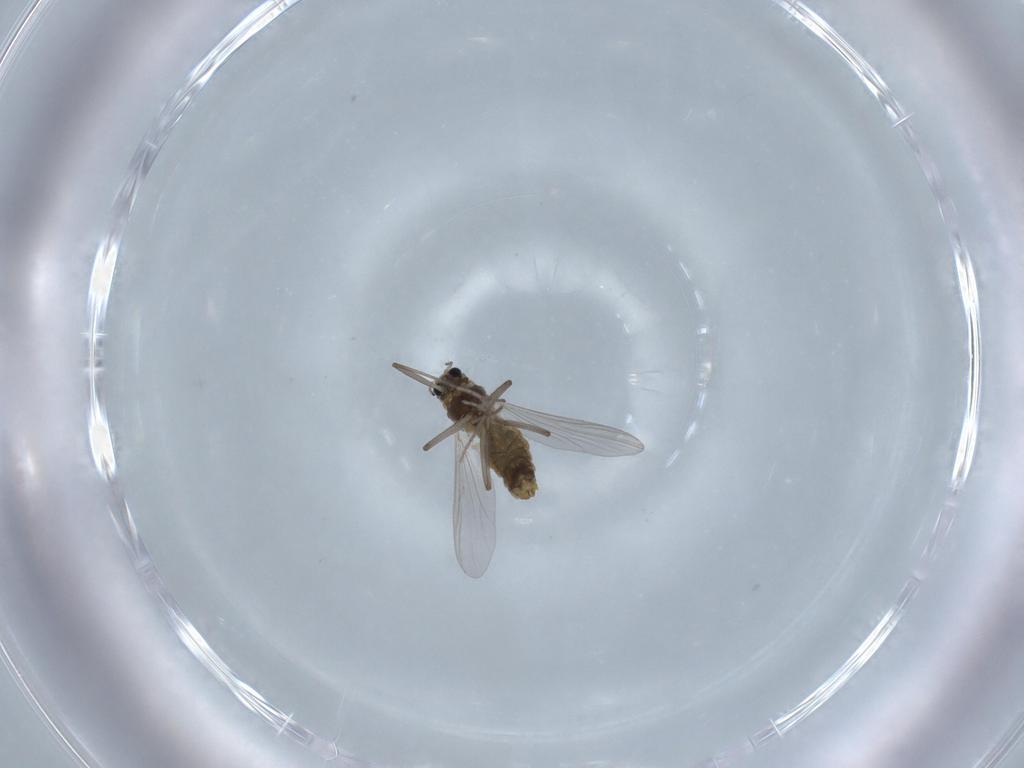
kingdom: Animalia
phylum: Arthropoda
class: Insecta
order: Diptera
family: Chironomidae
